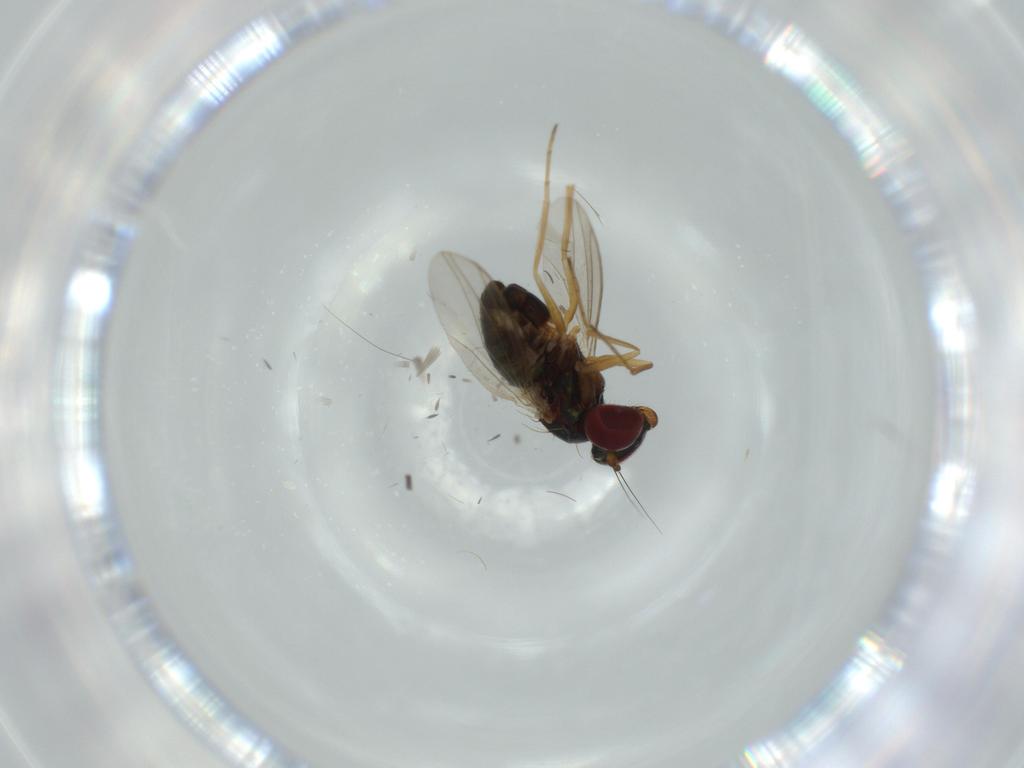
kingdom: Animalia
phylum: Arthropoda
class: Insecta
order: Diptera
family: Dolichopodidae
